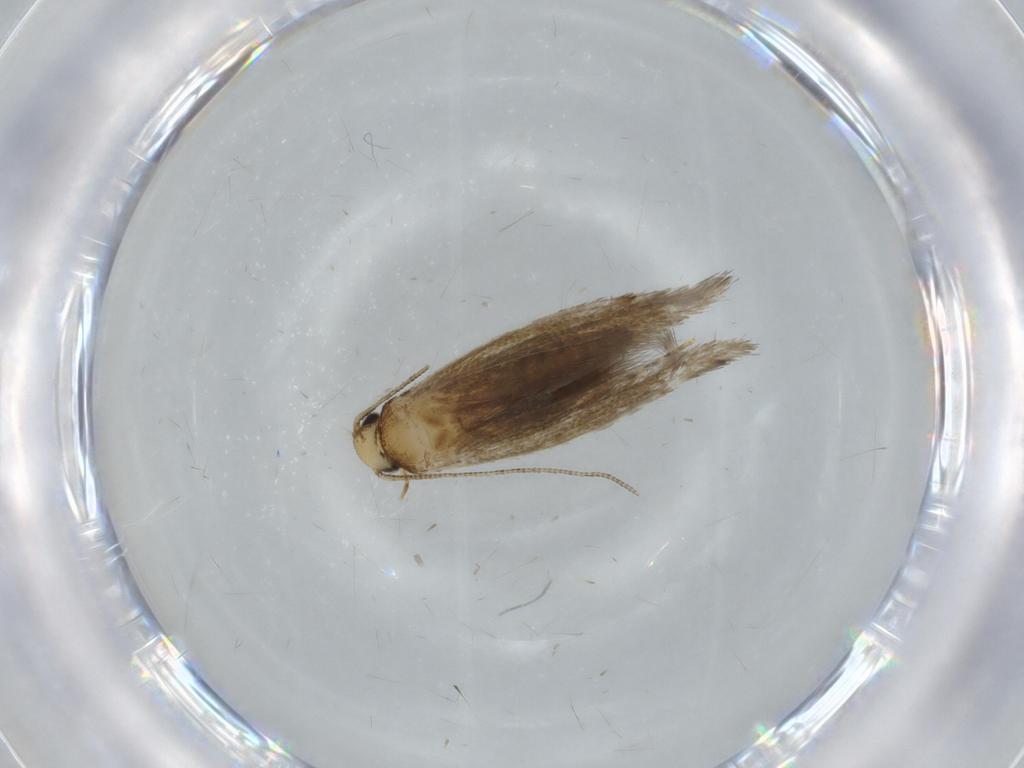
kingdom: Animalia
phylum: Arthropoda
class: Insecta
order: Lepidoptera
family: Tineidae
